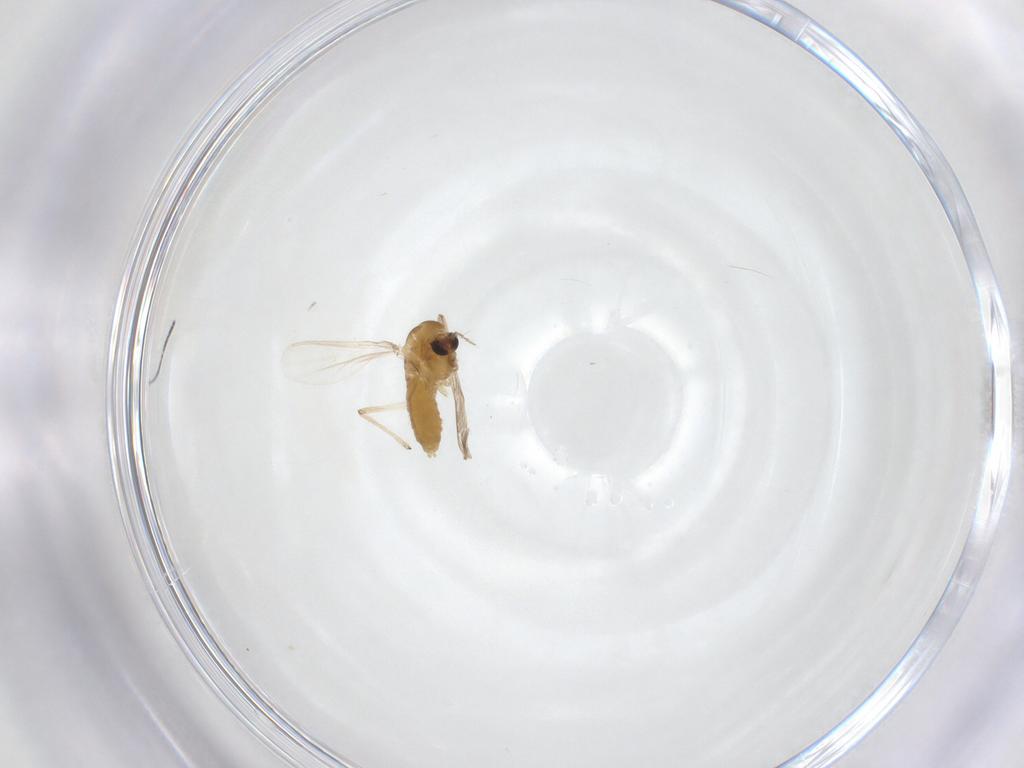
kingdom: Animalia
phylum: Arthropoda
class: Insecta
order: Diptera
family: Chironomidae
